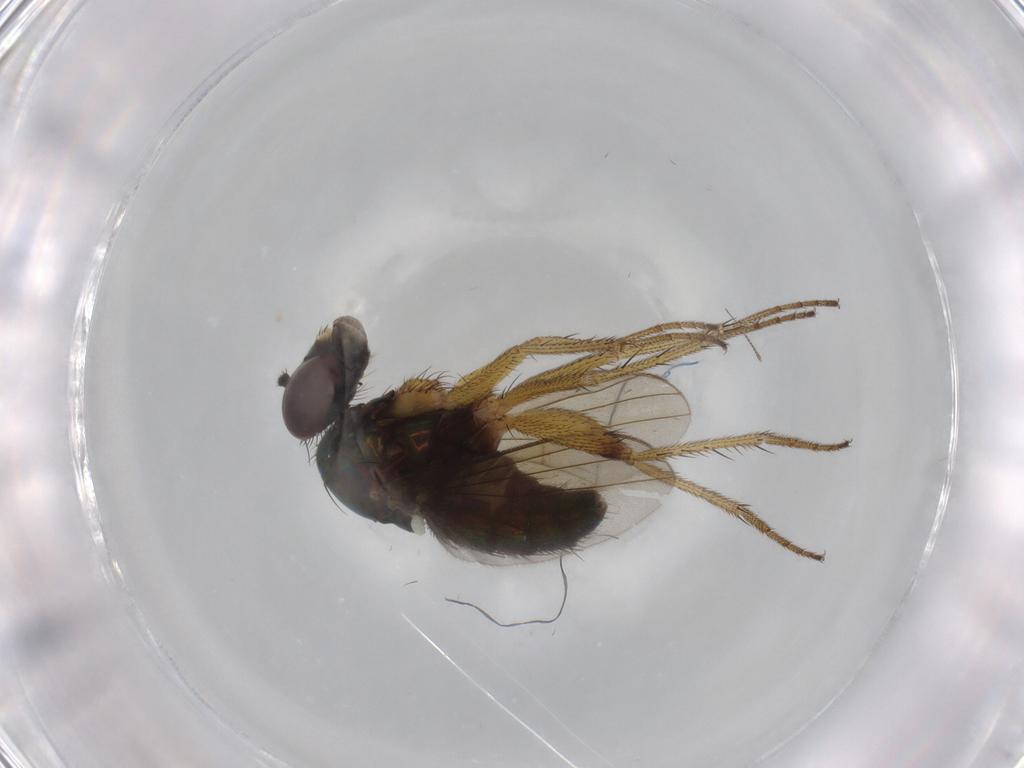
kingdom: Animalia
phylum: Arthropoda
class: Insecta
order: Diptera
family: Dolichopodidae
